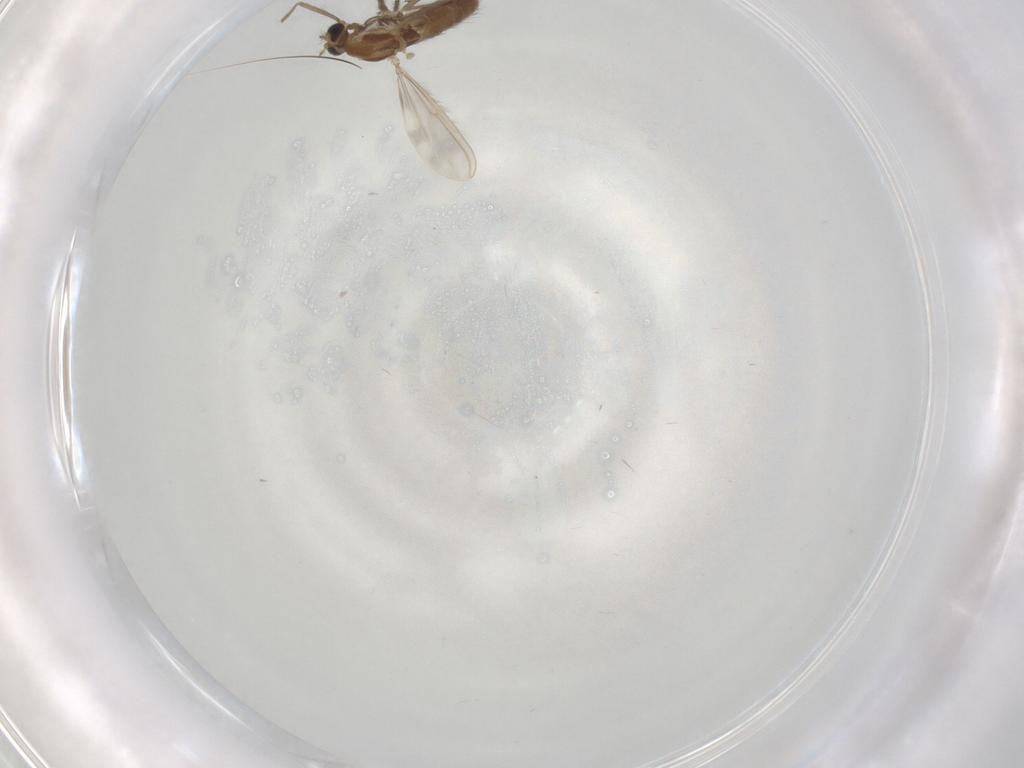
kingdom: Animalia
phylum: Arthropoda
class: Insecta
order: Diptera
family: Chironomidae
